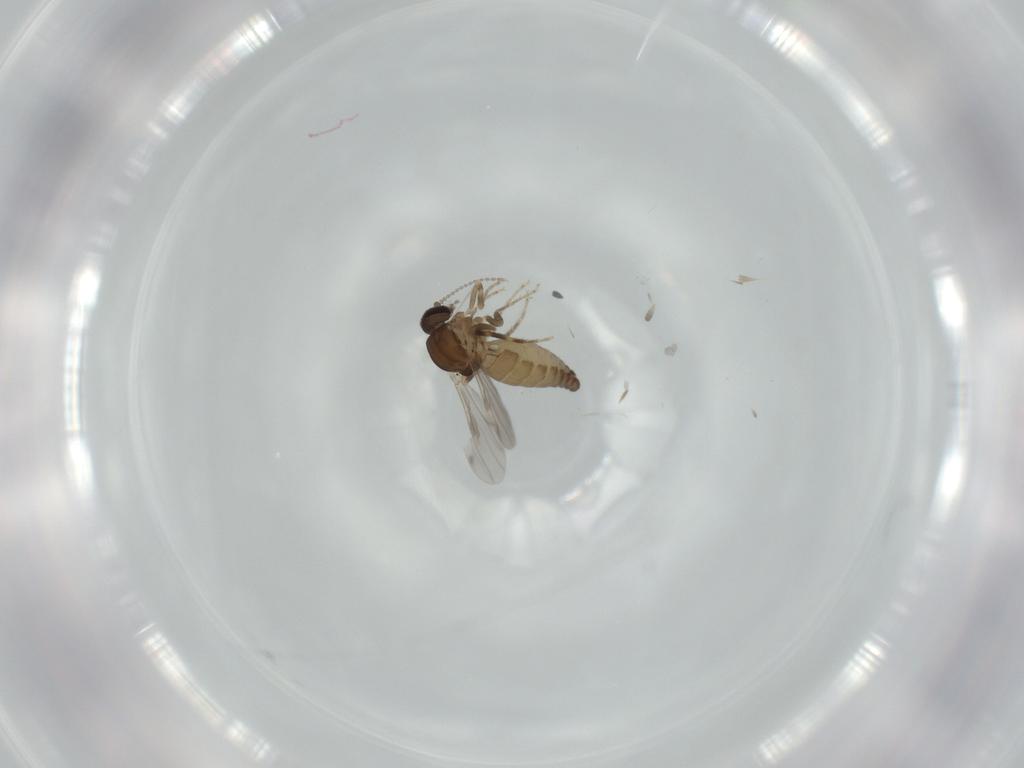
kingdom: Animalia
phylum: Arthropoda
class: Insecta
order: Diptera
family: Ceratopogonidae
